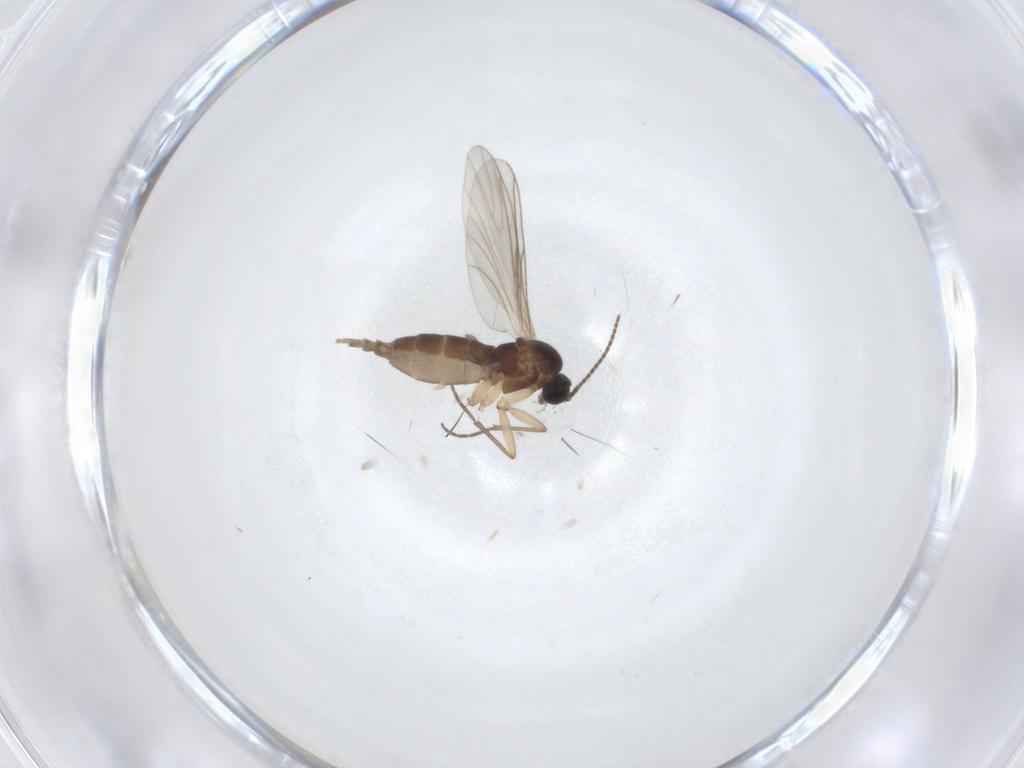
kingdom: Animalia
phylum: Arthropoda
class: Insecta
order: Diptera
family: Sciaridae
